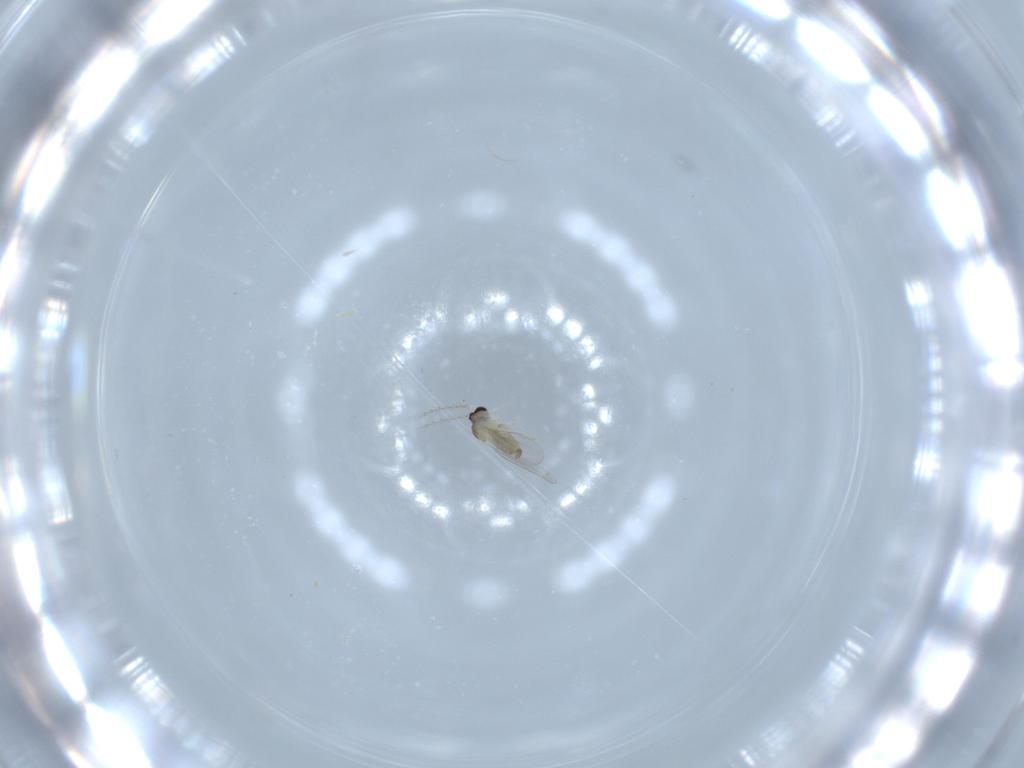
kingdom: Animalia
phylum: Arthropoda
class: Insecta
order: Diptera
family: Cecidomyiidae
